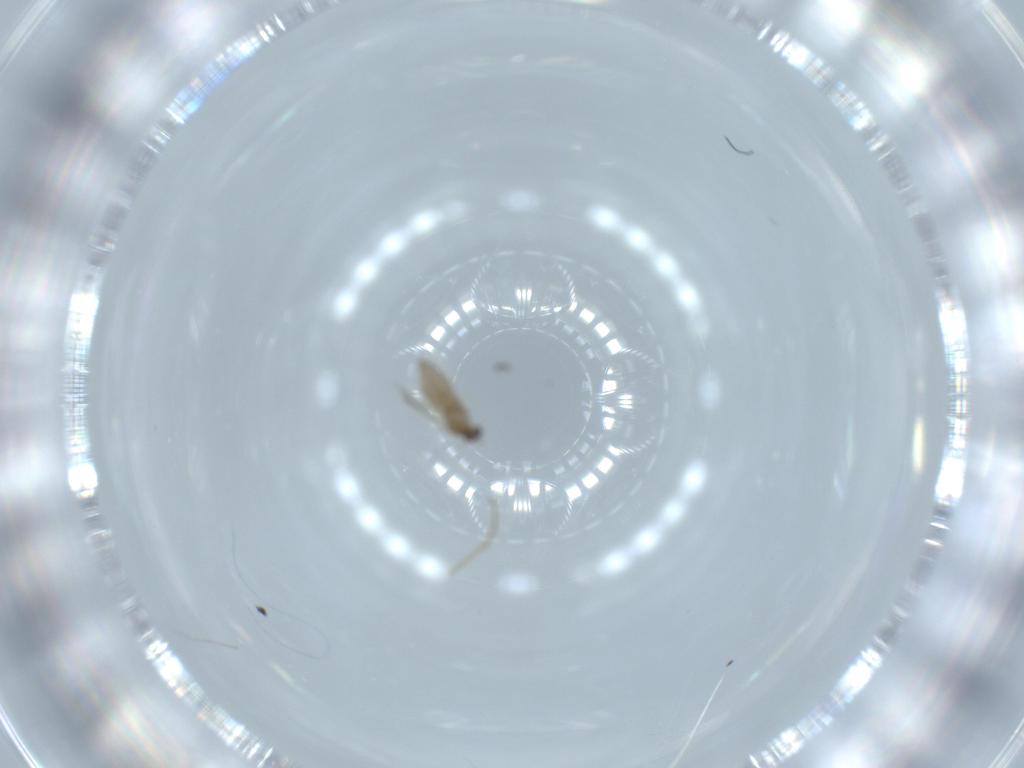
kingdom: Animalia
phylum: Arthropoda
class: Insecta
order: Diptera
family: Cecidomyiidae
